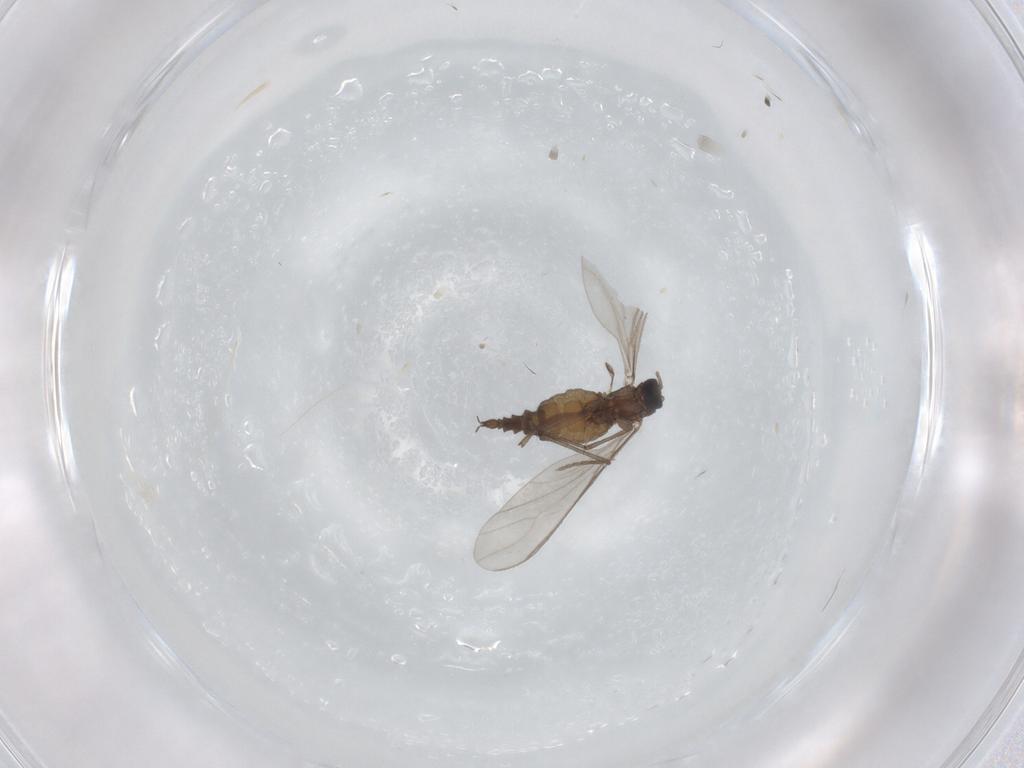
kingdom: Animalia
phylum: Arthropoda
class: Insecta
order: Diptera
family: Sciaridae
